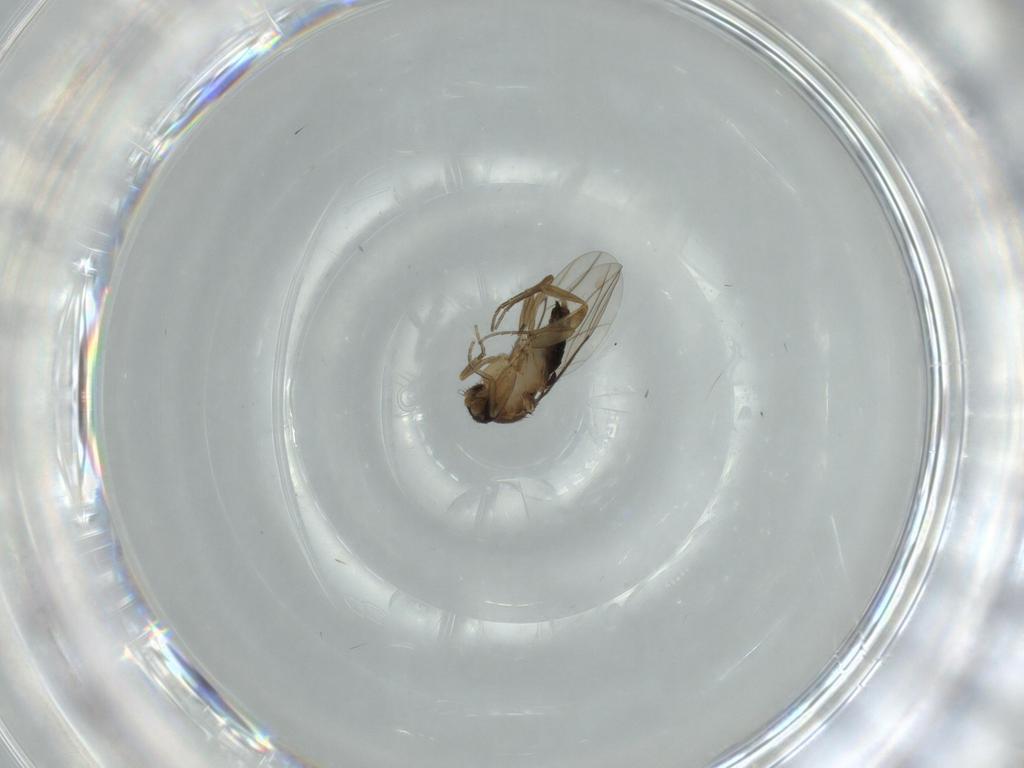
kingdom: Animalia
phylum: Arthropoda
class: Insecta
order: Diptera
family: Phoridae
